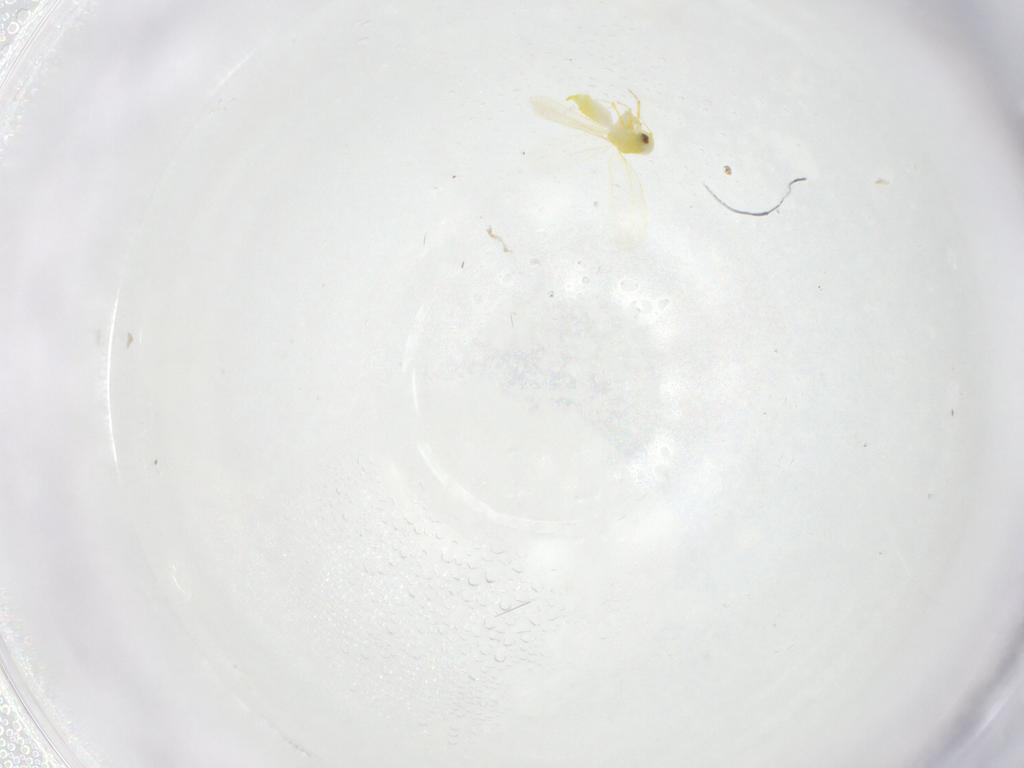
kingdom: Animalia
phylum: Arthropoda
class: Insecta
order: Hemiptera
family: Aleyrodidae
